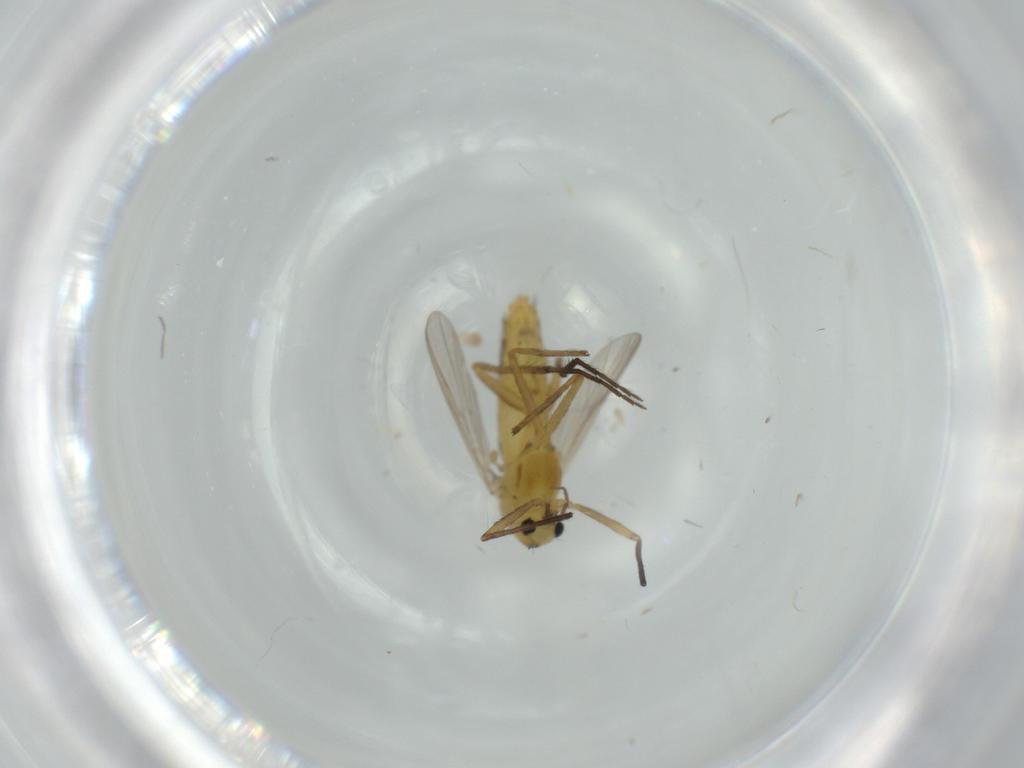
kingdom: Animalia
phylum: Arthropoda
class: Insecta
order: Diptera
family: Chironomidae
